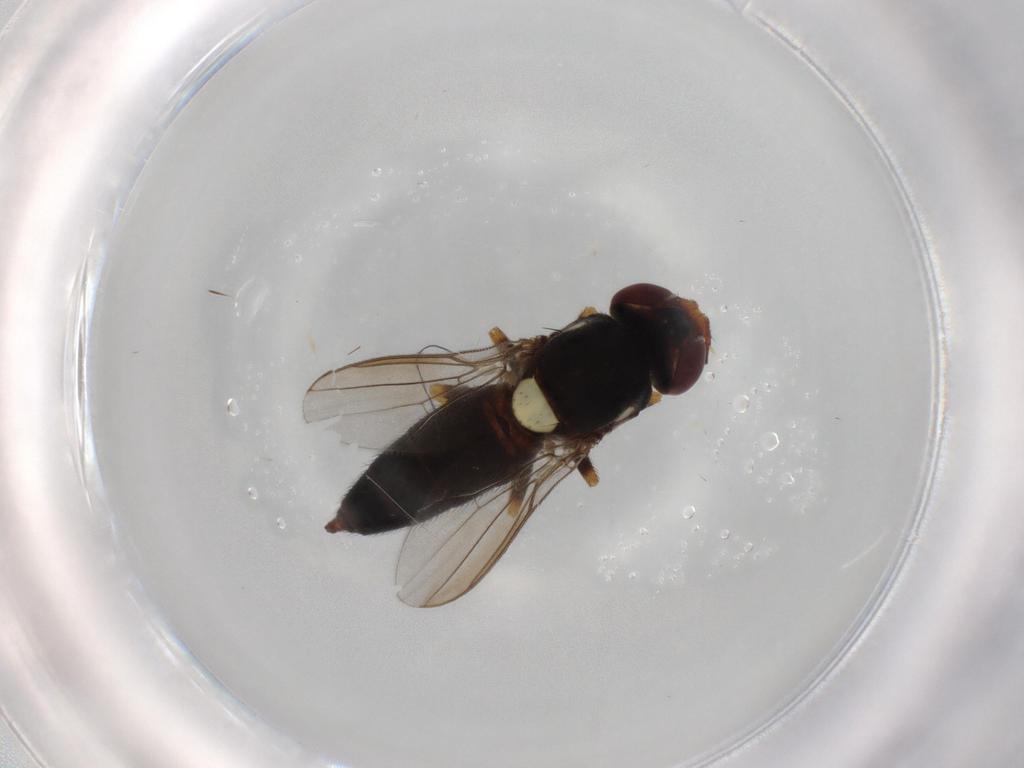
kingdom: Animalia
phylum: Arthropoda
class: Insecta
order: Diptera
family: Chloropidae
